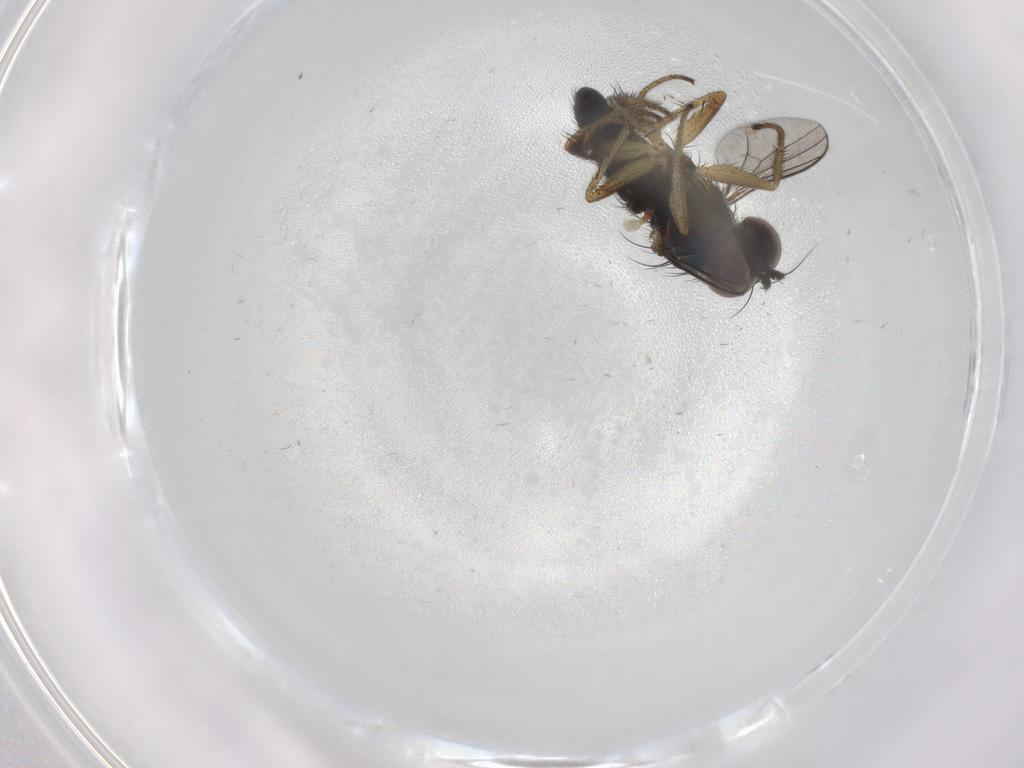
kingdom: Animalia
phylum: Arthropoda
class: Insecta
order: Diptera
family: Dolichopodidae
